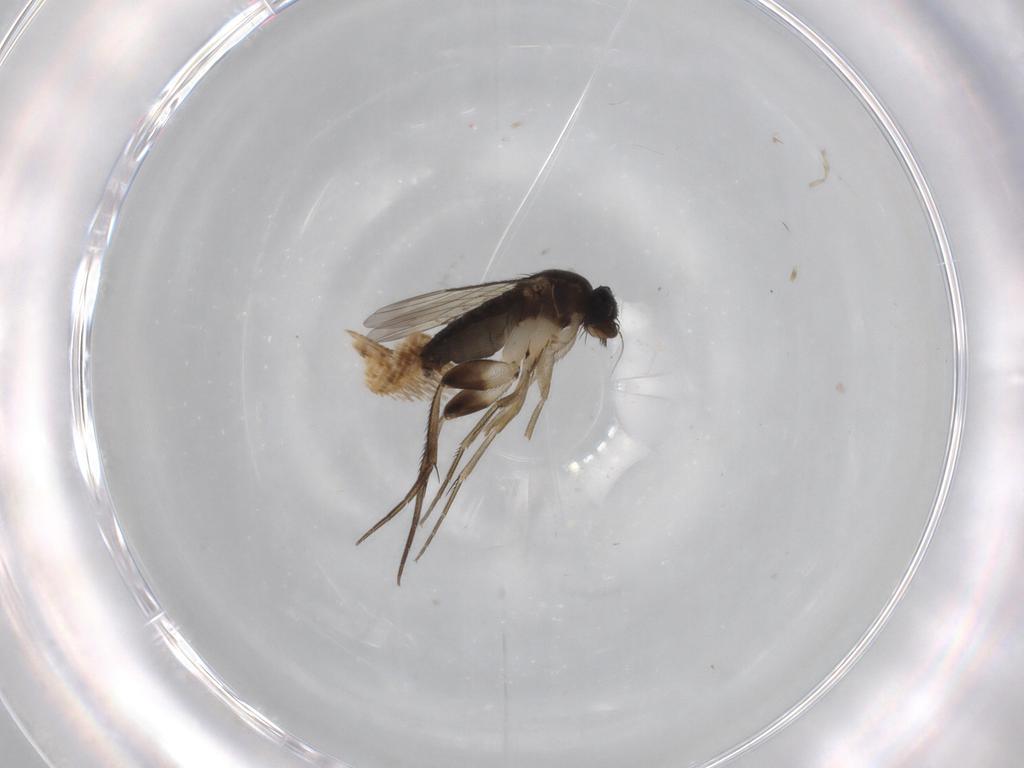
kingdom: Animalia
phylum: Arthropoda
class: Insecta
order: Diptera
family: Phoridae
